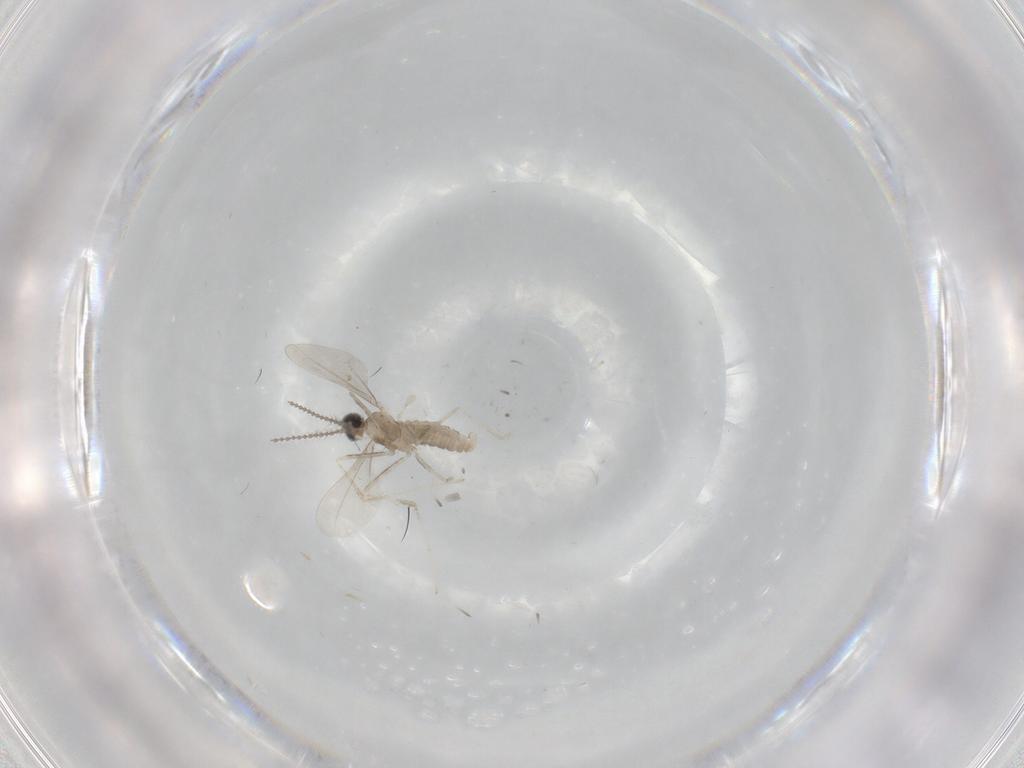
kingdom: Animalia
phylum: Arthropoda
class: Insecta
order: Diptera
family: Cecidomyiidae
